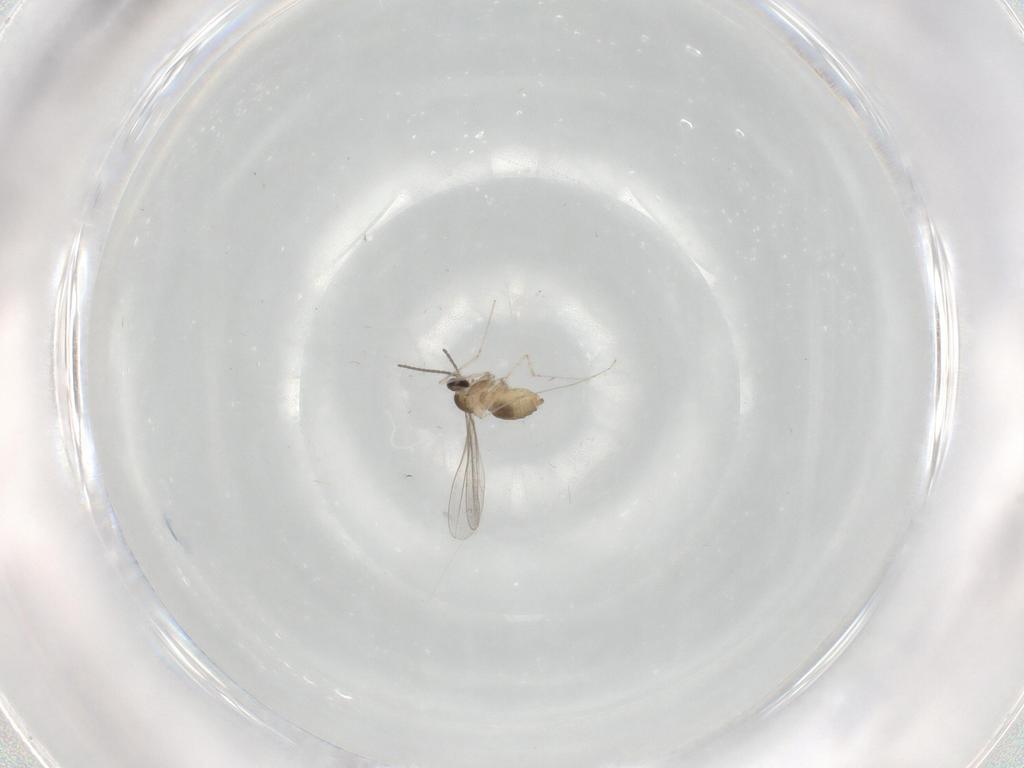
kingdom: Animalia
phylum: Arthropoda
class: Insecta
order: Diptera
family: Cecidomyiidae
